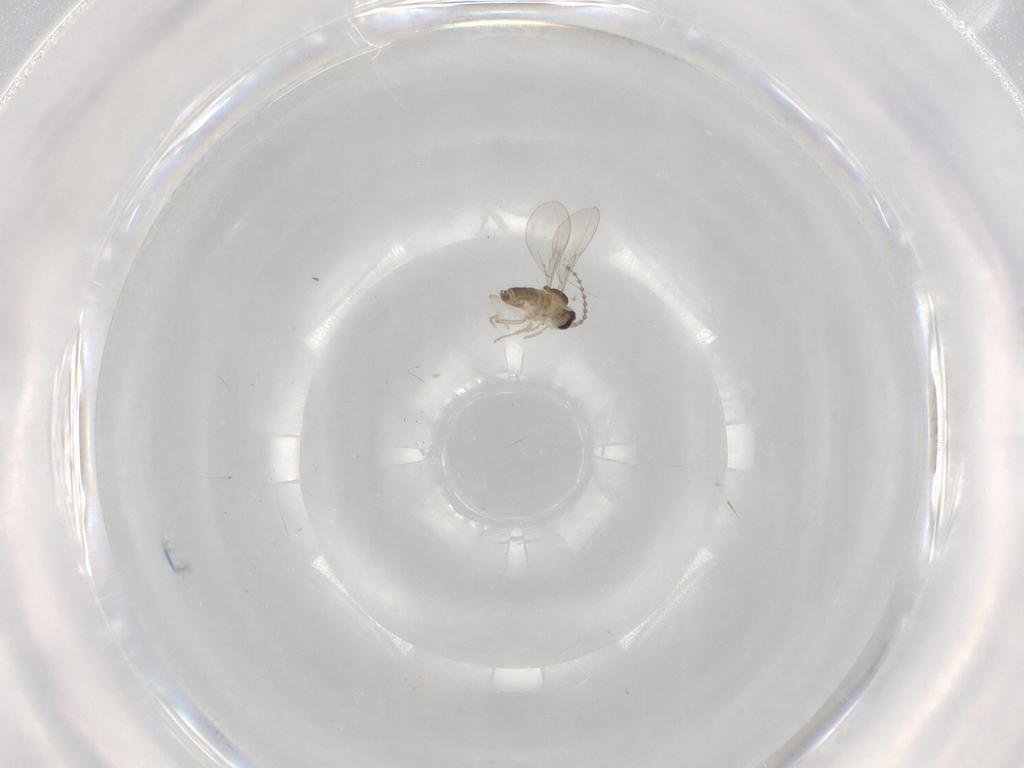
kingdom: Animalia
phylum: Arthropoda
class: Insecta
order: Diptera
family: Cecidomyiidae
